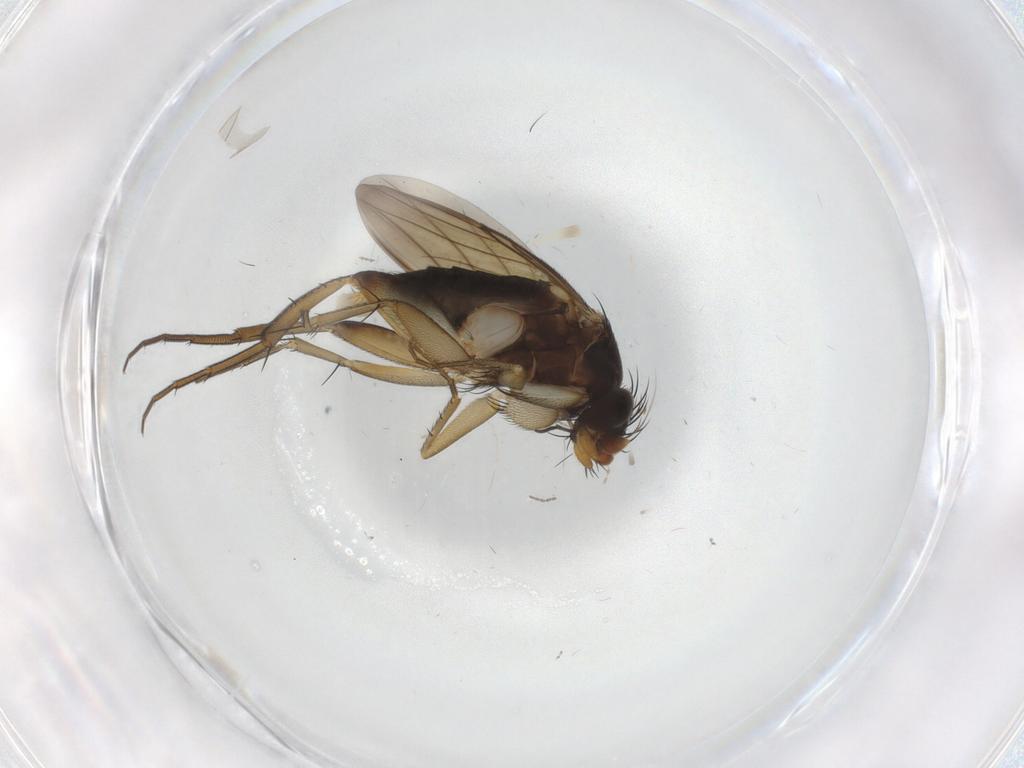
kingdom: Animalia
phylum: Arthropoda
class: Insecta
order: Diptera
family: Phoridae
